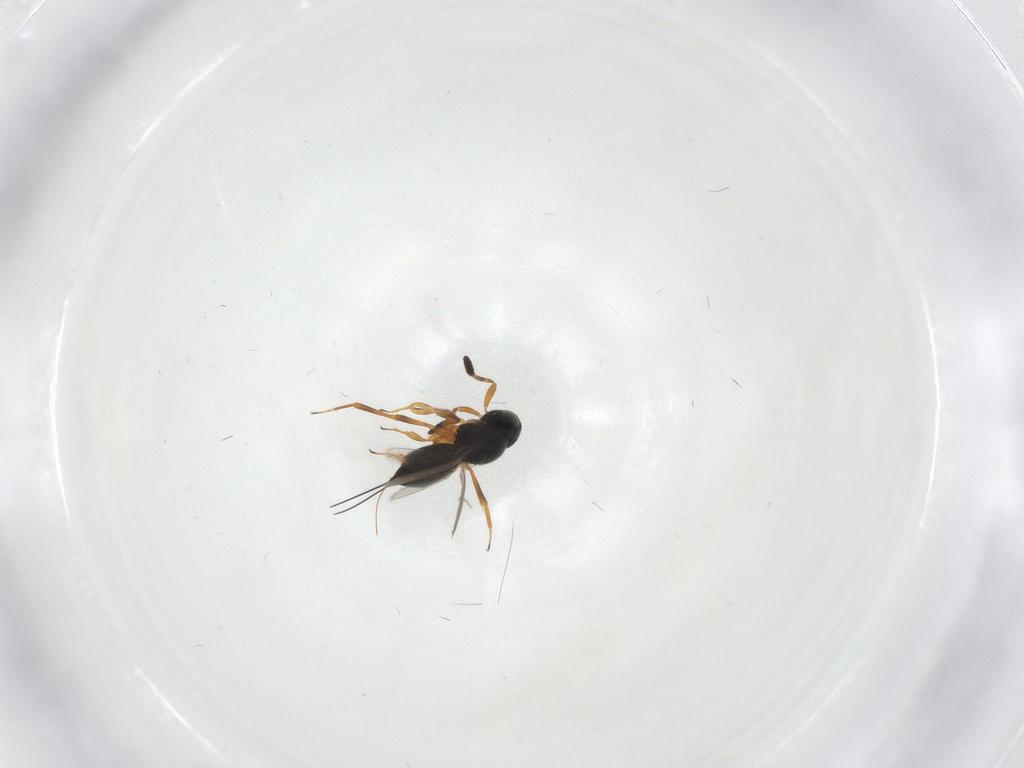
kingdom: Animalia
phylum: Arthropoda
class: Insecta
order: Hymenoptera
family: Scelionidae
